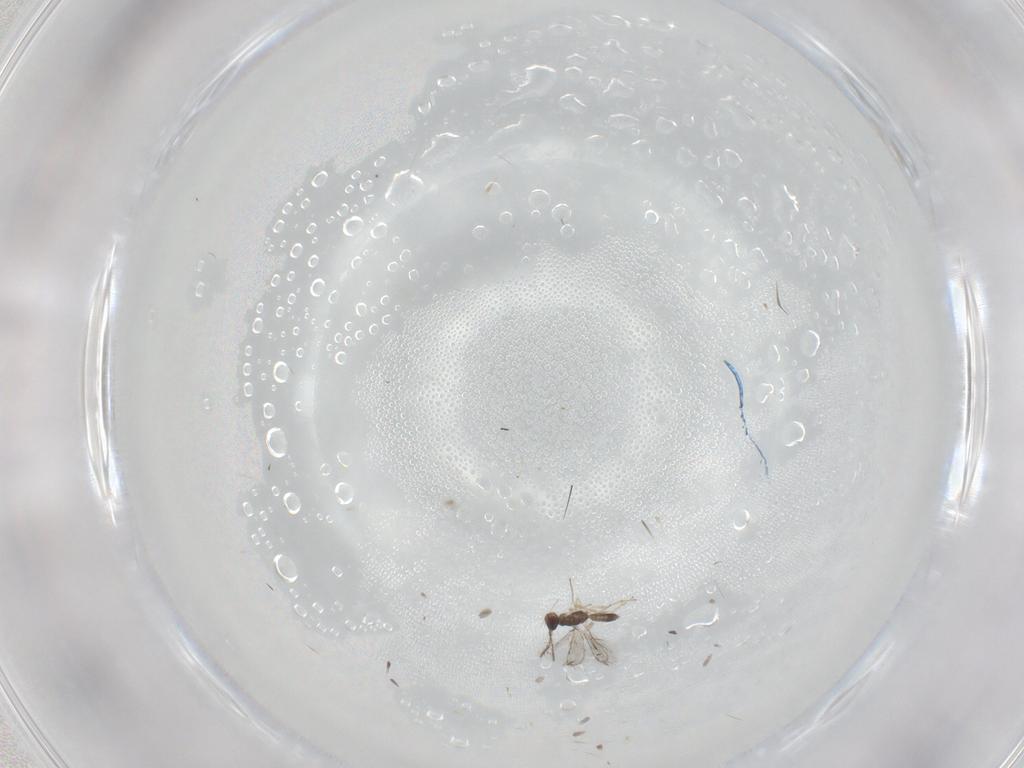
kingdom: Animalia
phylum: Arthropoda
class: Insecta
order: Hymenoptera
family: Pteromalidae
